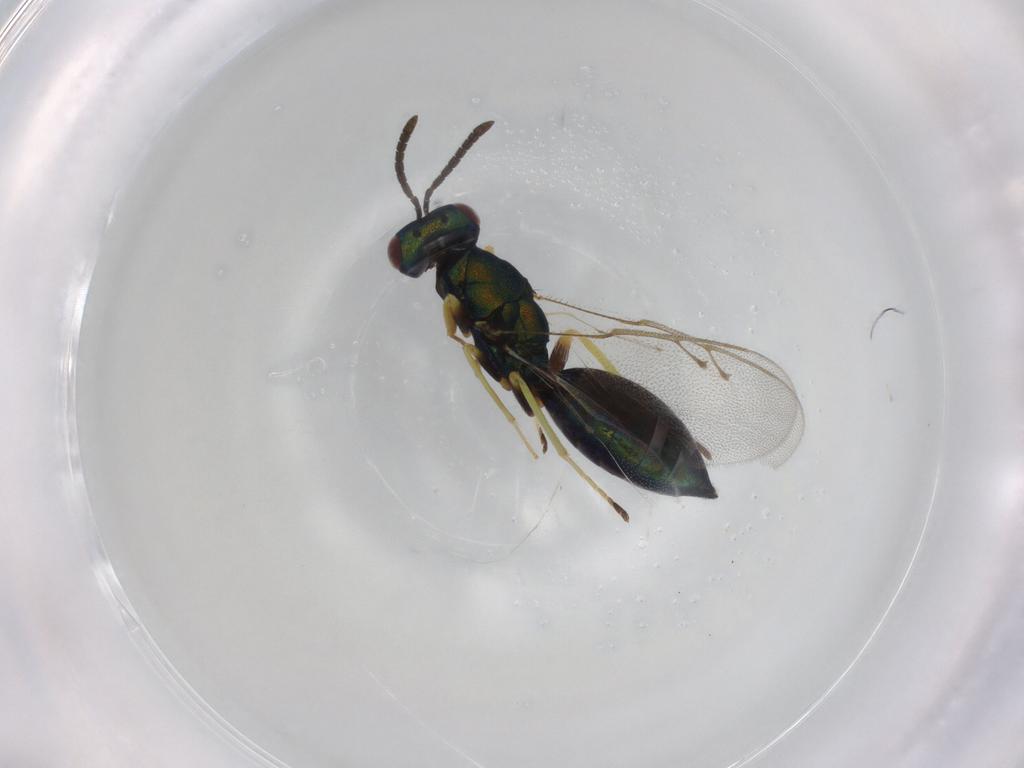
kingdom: Animalia
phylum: Arthropoda
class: Insecta
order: Hymenoptera
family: Pteromalidae
